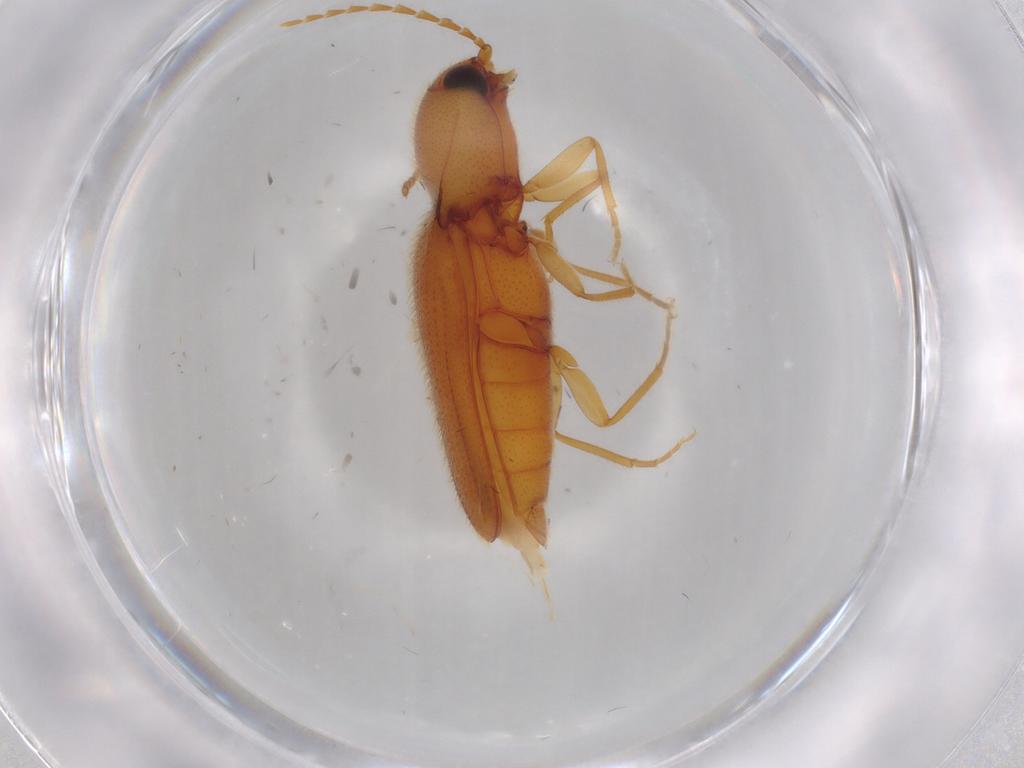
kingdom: Animalia
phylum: Arthropoda
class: Insecta
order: Coleoptera
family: Elateridae
